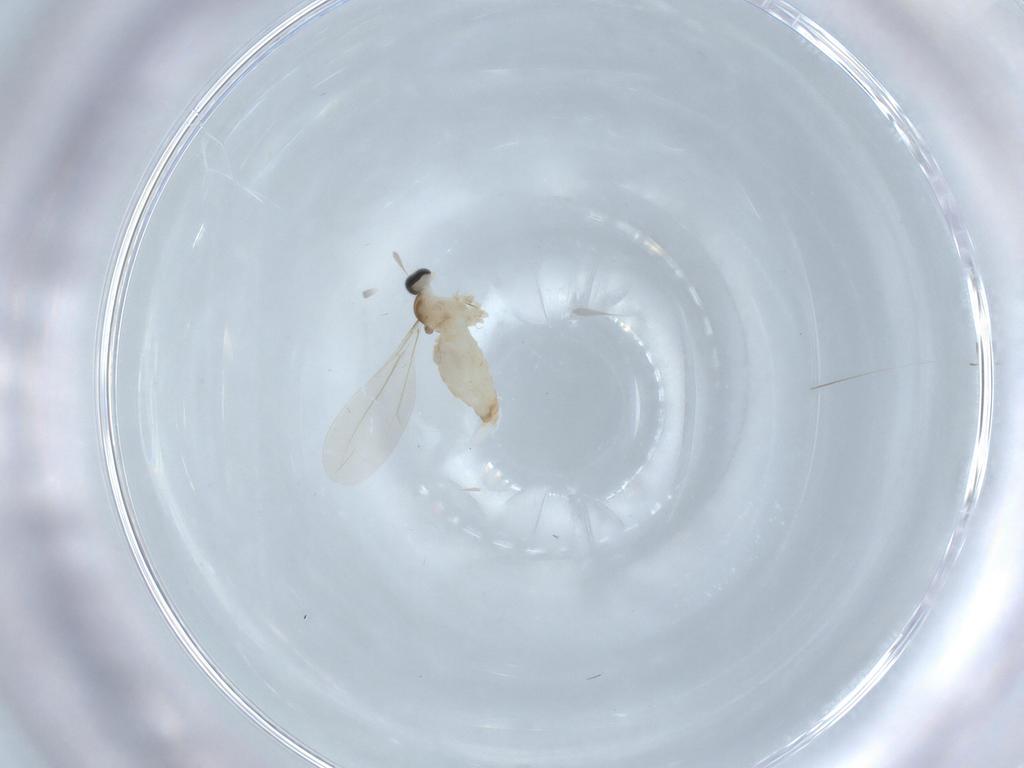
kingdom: Animalia
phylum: Arthropoda
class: Insecta
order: Diptera
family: Cecidomyiidae
